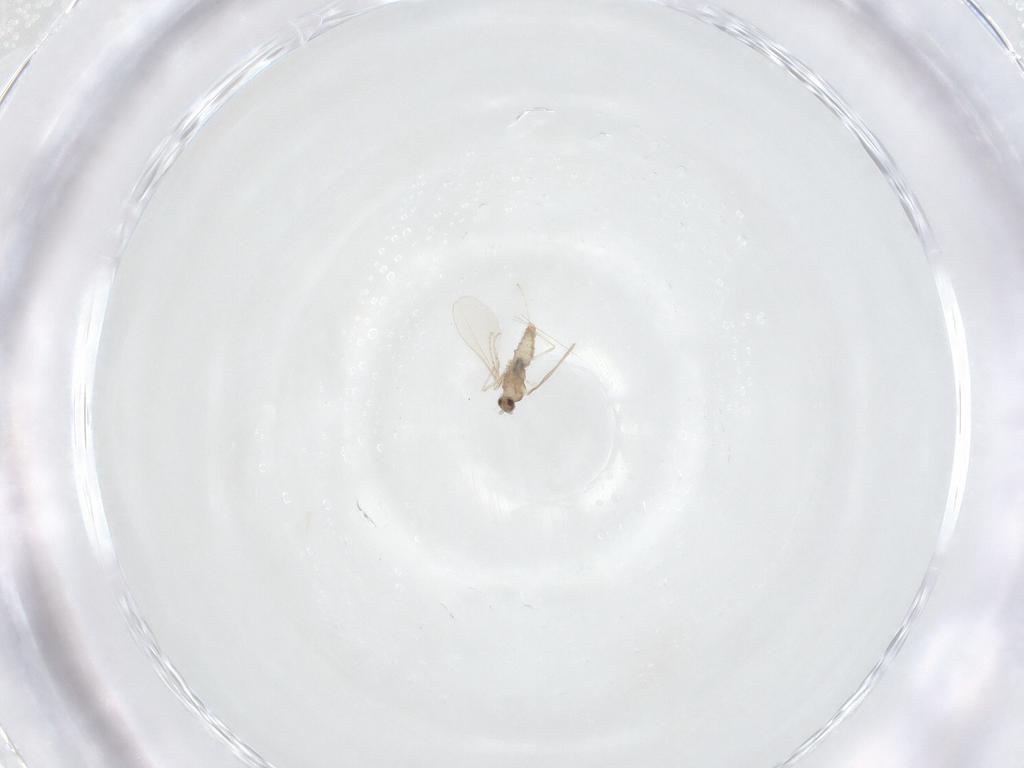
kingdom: Animalia
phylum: Arthropoda
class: Insecta
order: Diptera
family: Cecidomyiidae
